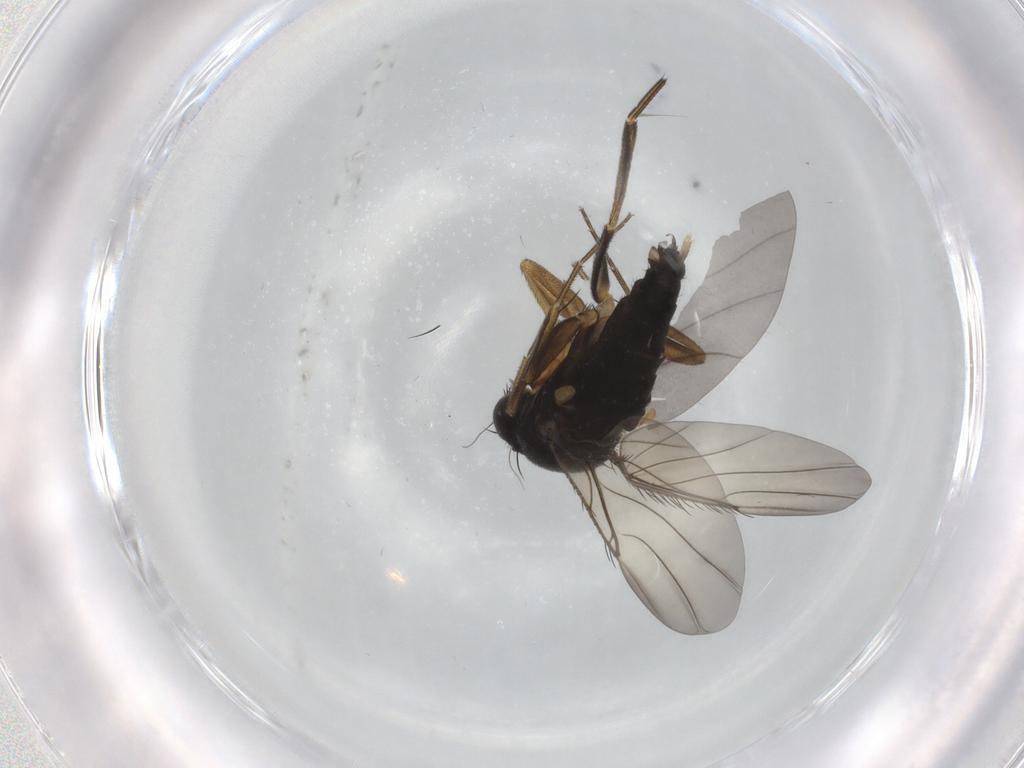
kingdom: Animalia
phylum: Arthropoda
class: Insecta
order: Diptera
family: Phoridae
